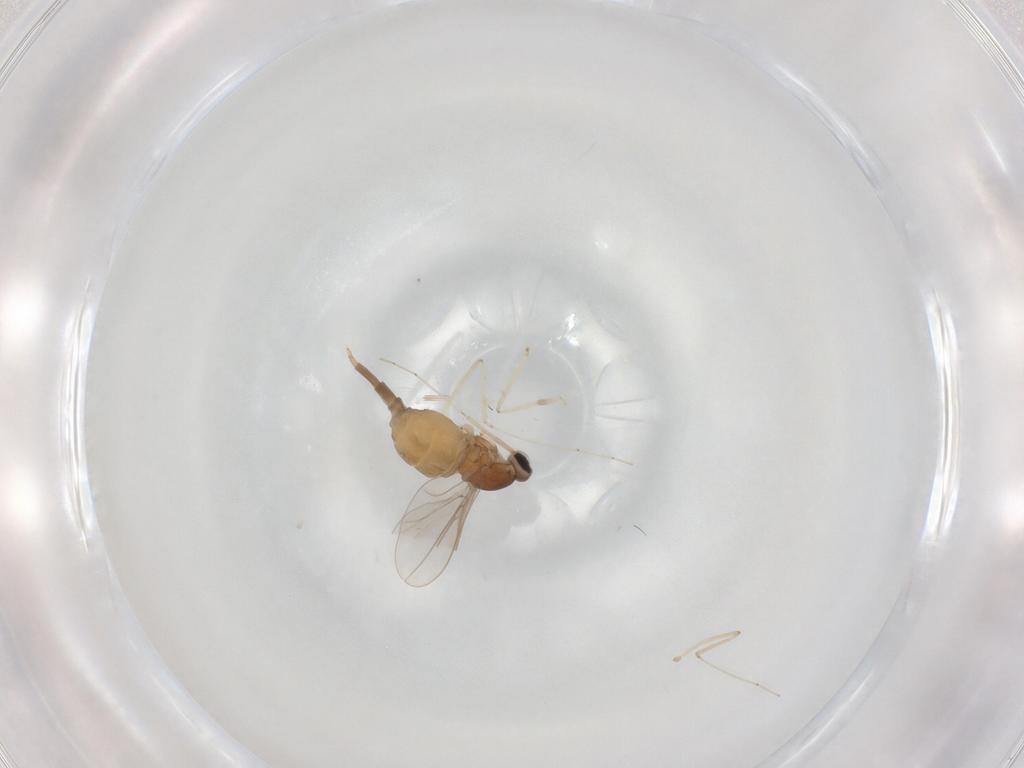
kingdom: Animalia
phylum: Arthropoda
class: Insecta
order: Diptera
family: Cecidomyiidae
